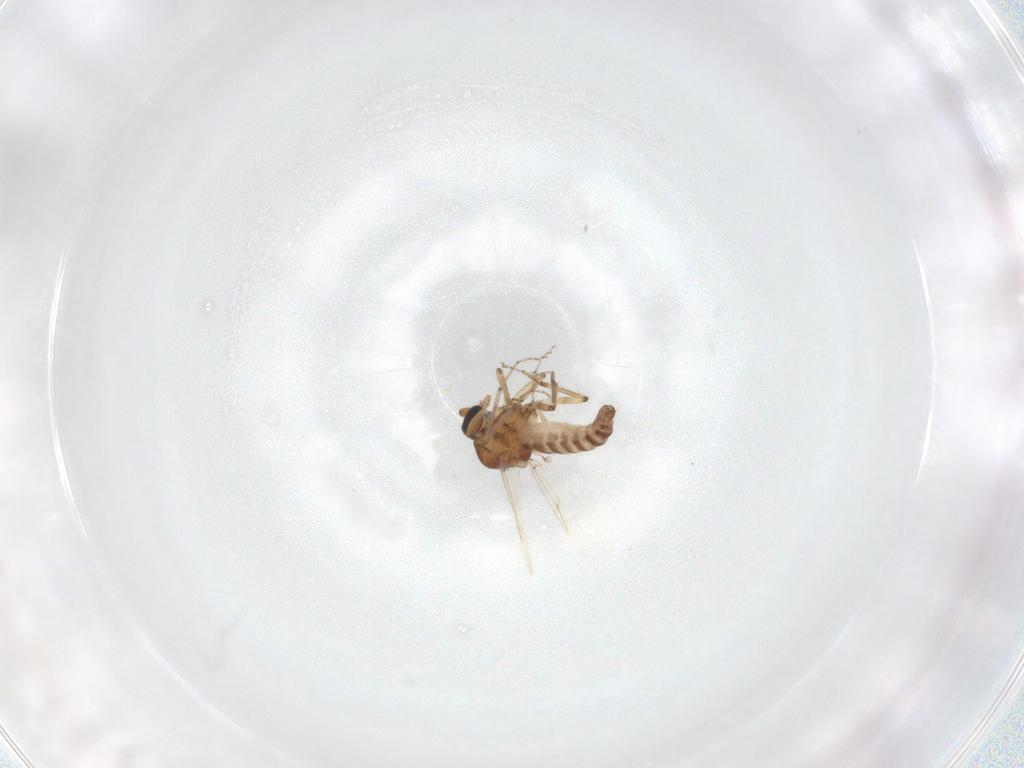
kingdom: Animalia
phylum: Arthropoda
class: Insecta
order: Diptera
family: Ceratopogonidae
